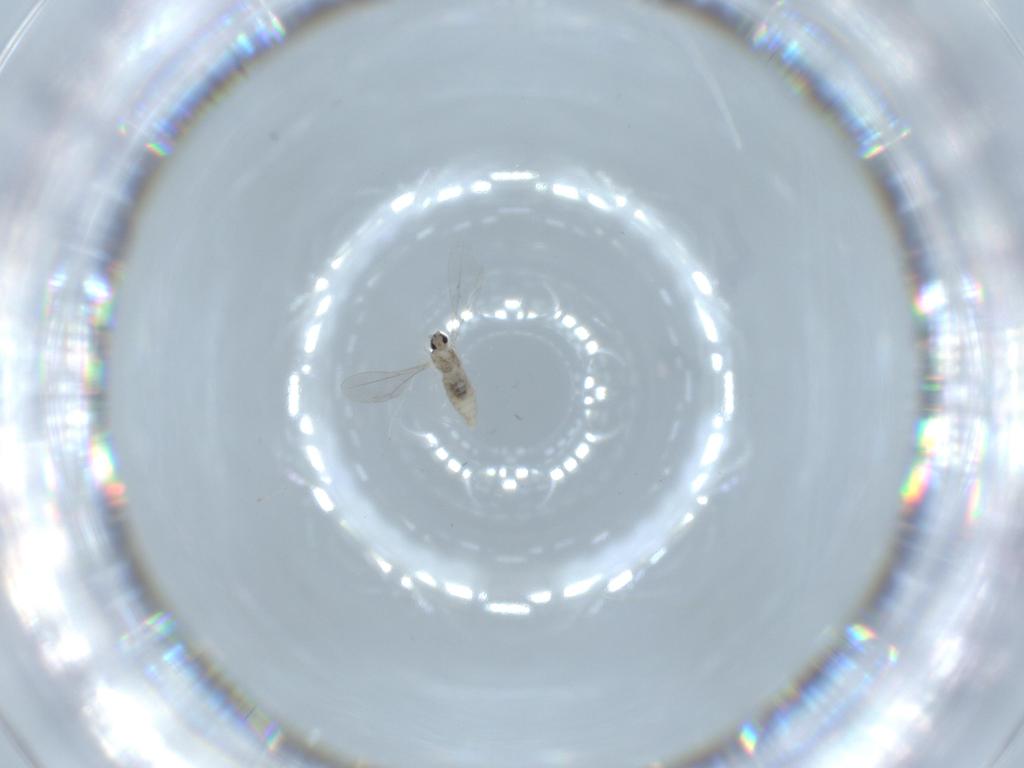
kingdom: Animalia
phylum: Arthropoda
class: Insecta
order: Diptera
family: Cecidomyiidae
